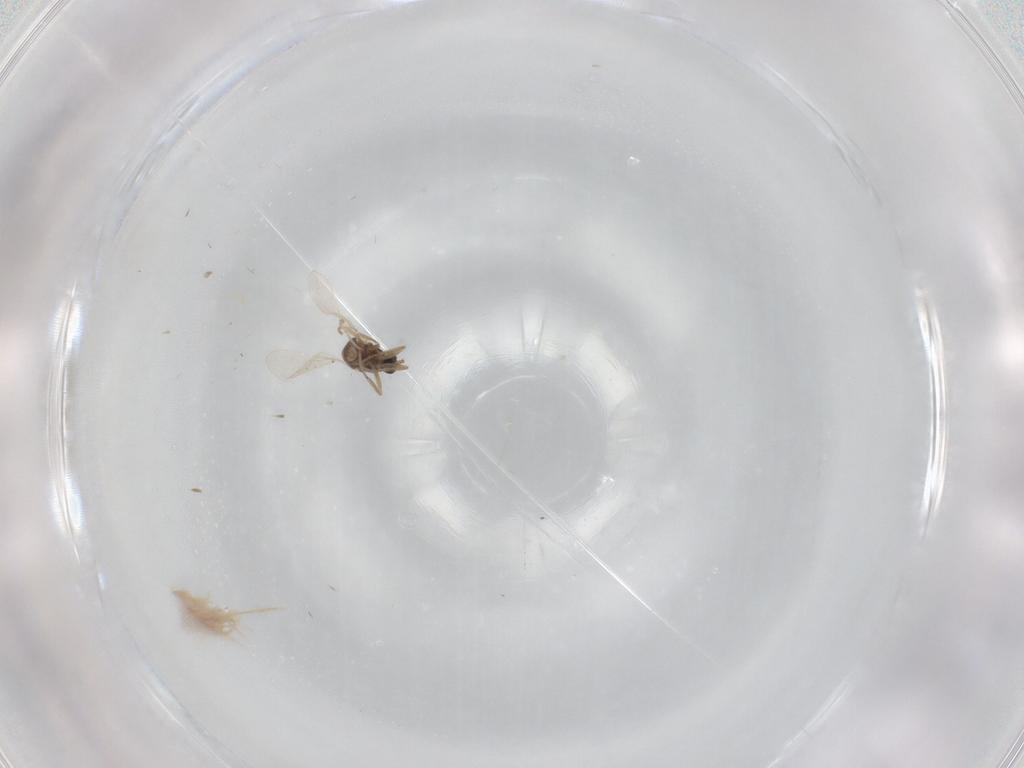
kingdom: Animalia
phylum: Arthropoda
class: Insecta
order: Diptera
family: Cecidomyiidae
